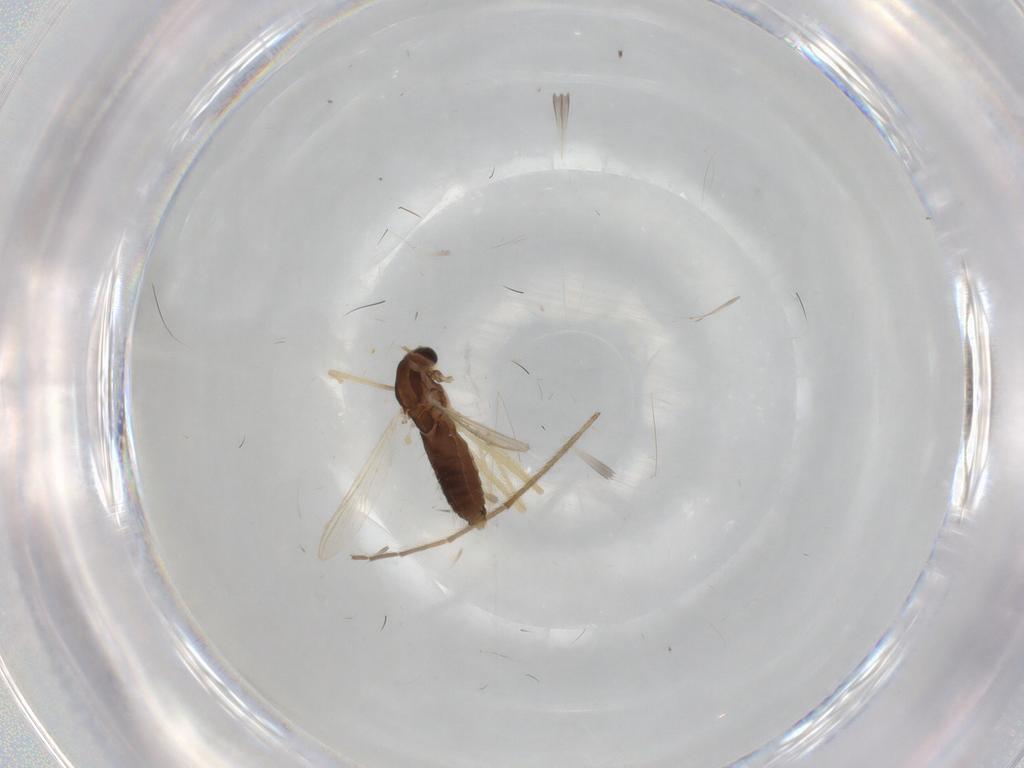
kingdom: Animalia
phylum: Arthropoda
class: Insecta
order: Diptera
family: Chironomidae
